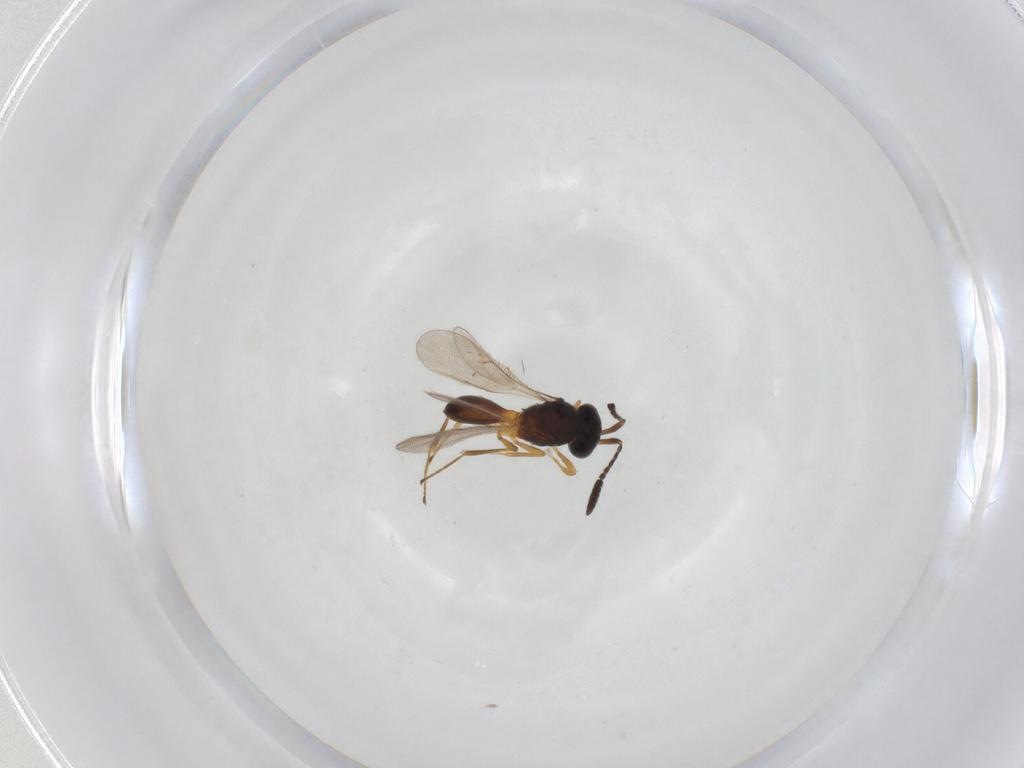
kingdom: Animalia
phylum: Arthropoda
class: Insecta
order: Hymenoptera
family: Scelionidae
